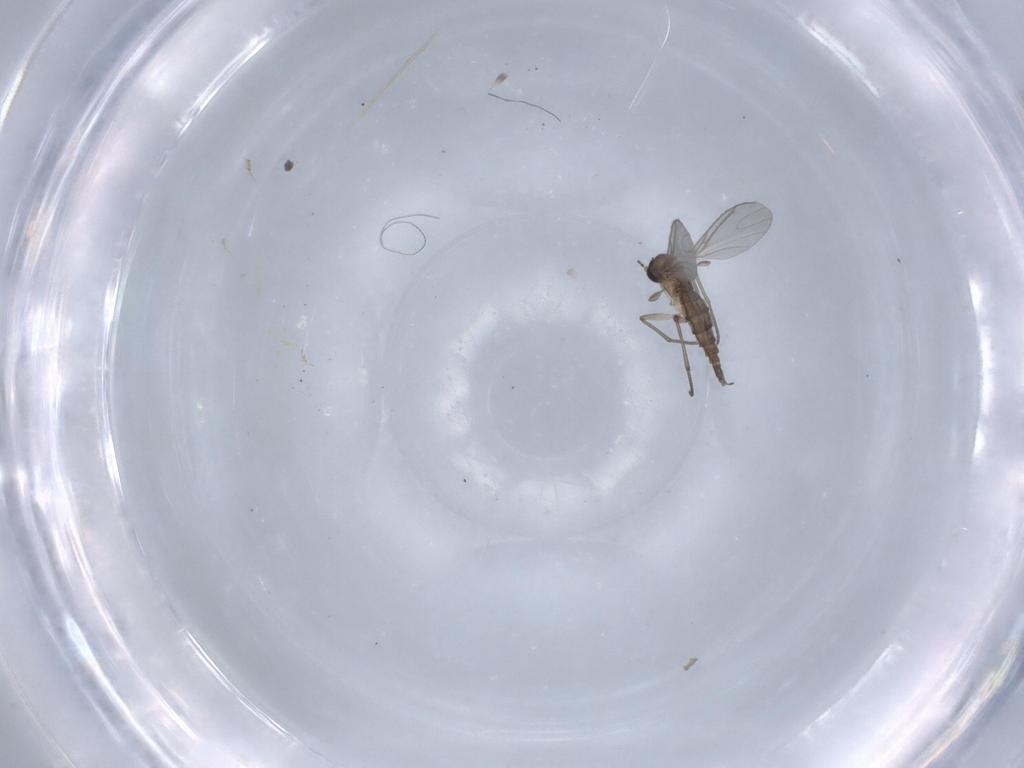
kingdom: Animalia
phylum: Arthropoda
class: Insecta
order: Diptera
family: Sciaridae
